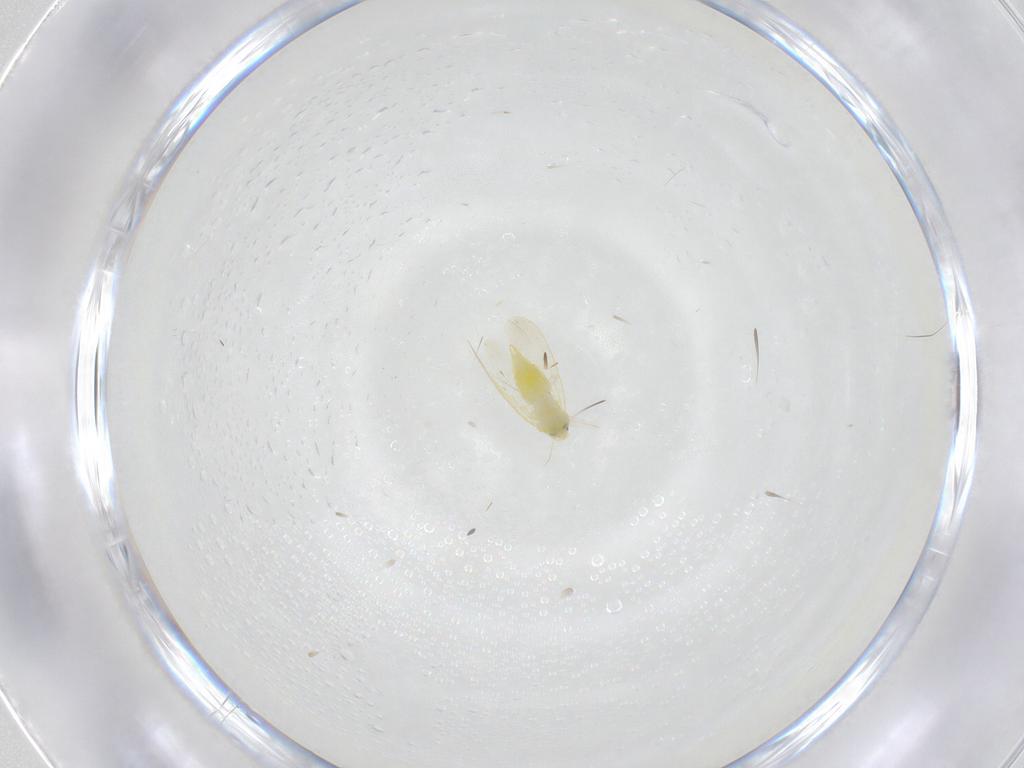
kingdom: Animalia
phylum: Arthropoda
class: Insecta
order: Hemiptera
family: Aleyrodidae
